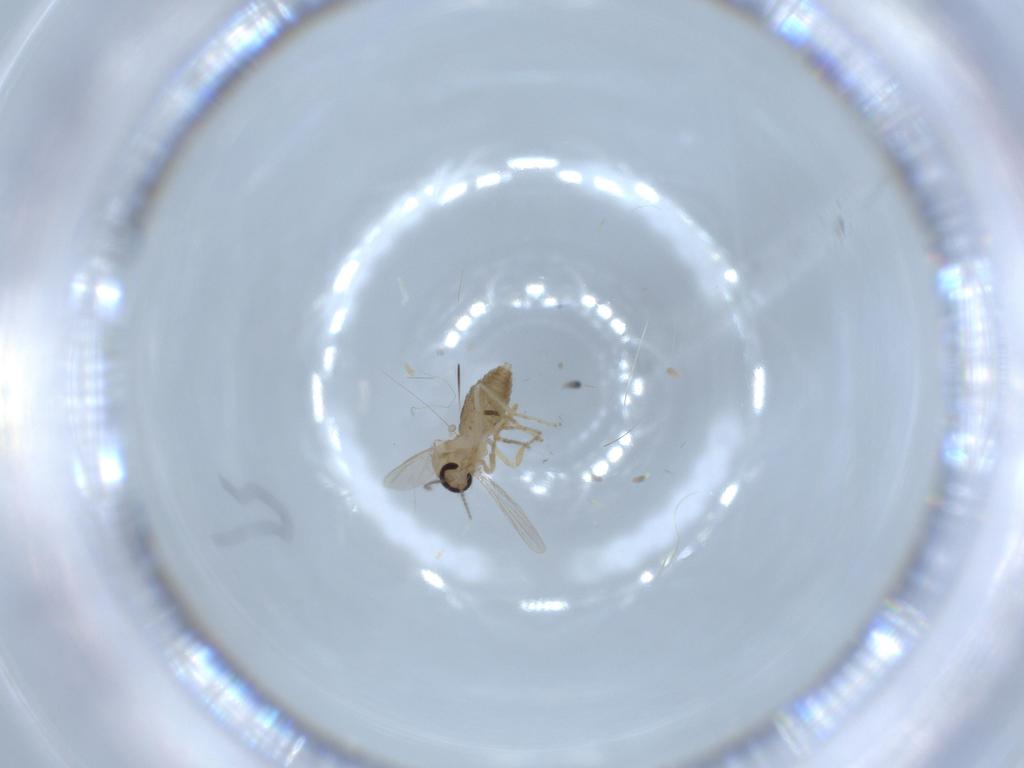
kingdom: Animalia
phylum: Arthropoda
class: Insecta
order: Diptera
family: Ceratopogonidae
